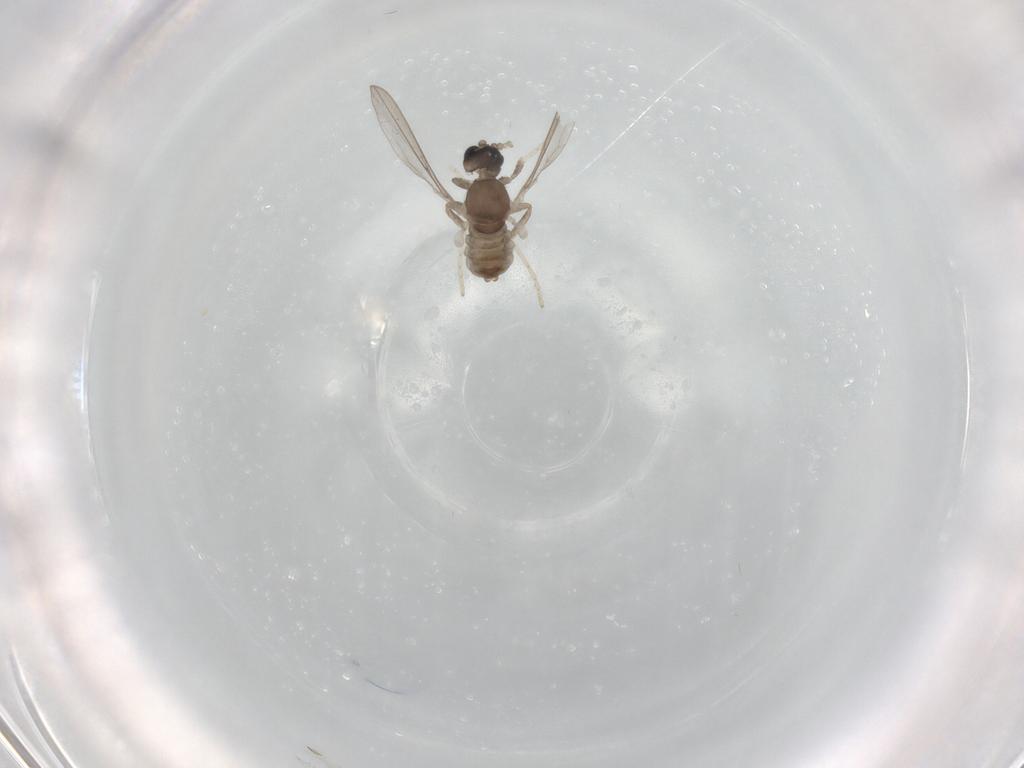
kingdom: Animalia
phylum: Arthropoda
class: Insecta
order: Diptera
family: Cecidomyiidae
